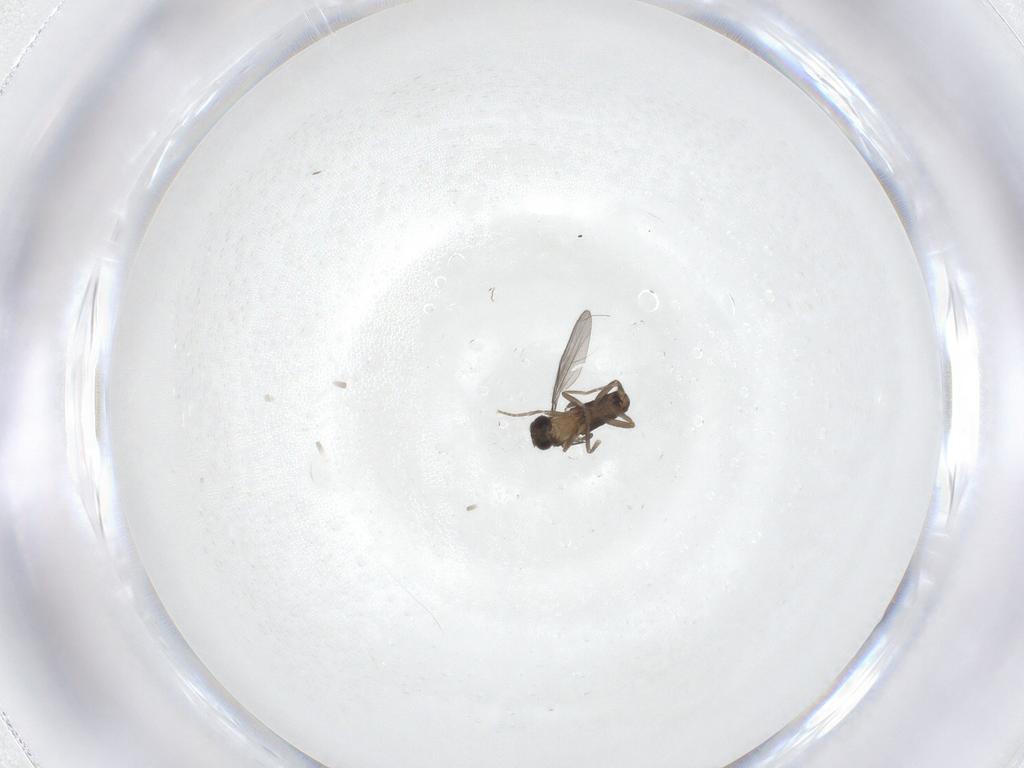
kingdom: Animalia
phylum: Arthropoda
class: Insecta
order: Diptera
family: Phoridae
